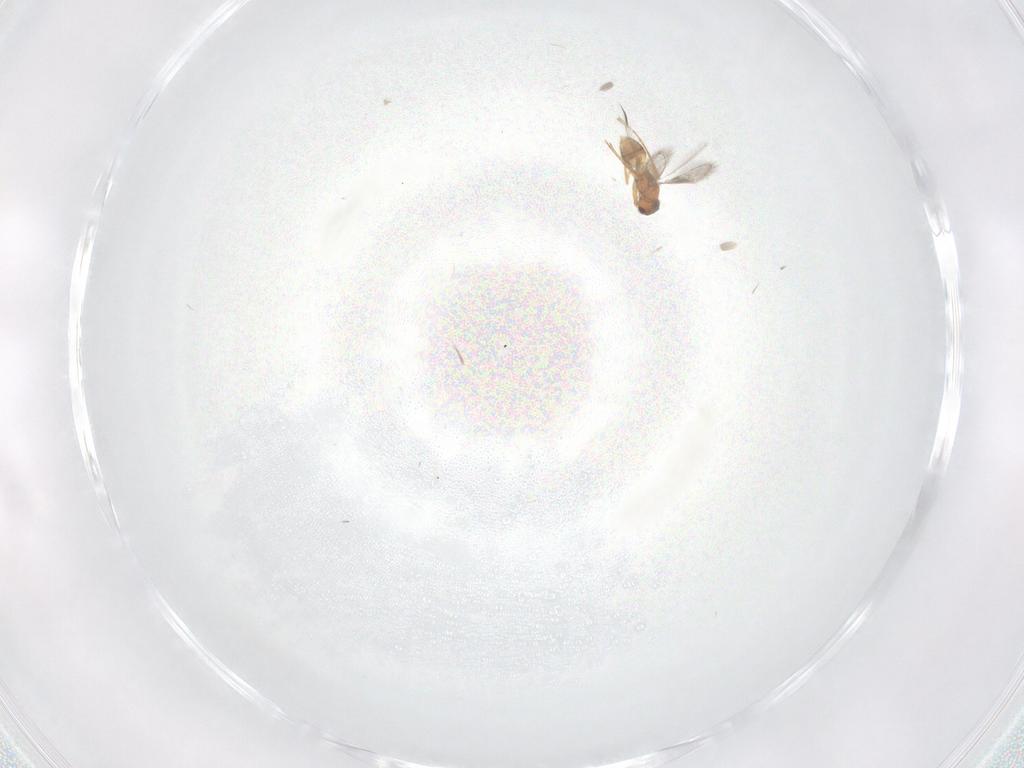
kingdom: Animalia
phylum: Arthropoda
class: Insecta
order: Hymenoptera
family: Mymaridae
